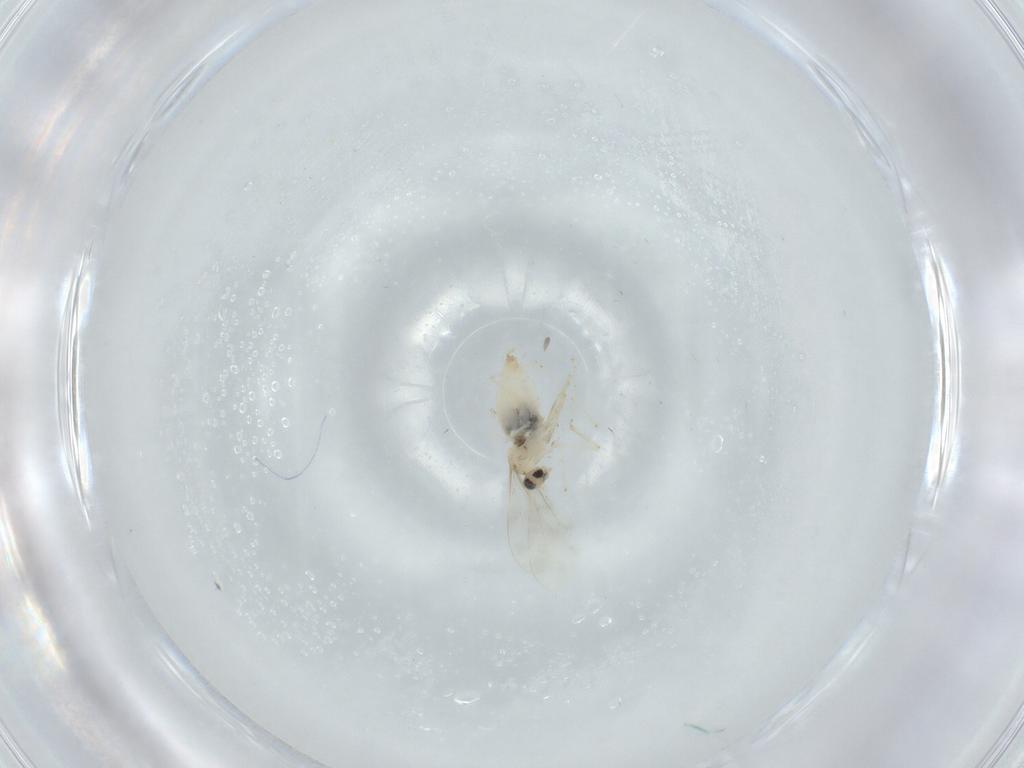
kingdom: Animalia
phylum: Arthropoda
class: Insecta
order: Diptera
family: Cecidomyiidae
